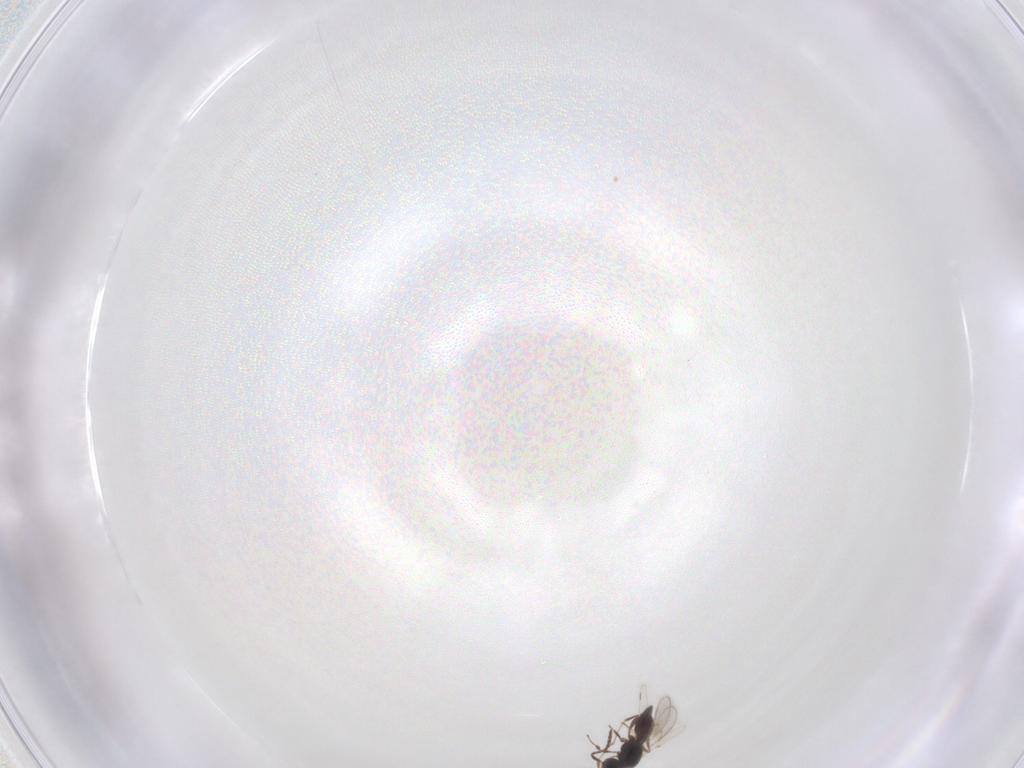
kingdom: Animalia
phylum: Arthropoda
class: Insecta
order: Hymenoptera
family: Scelionidae
